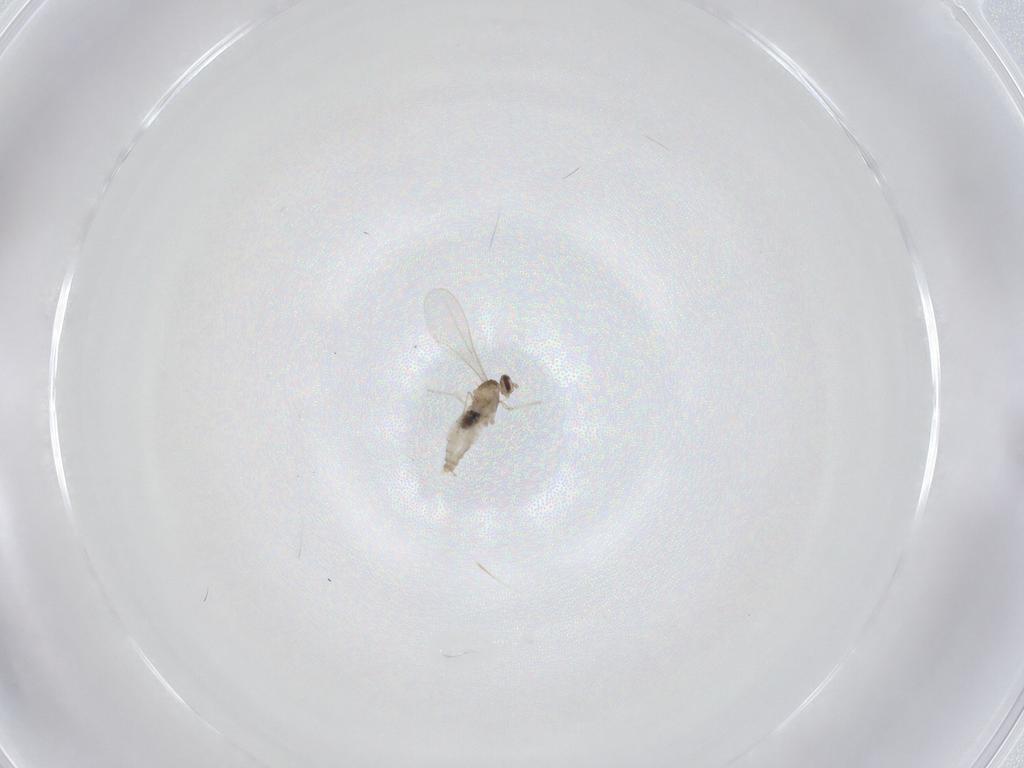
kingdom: Animalia
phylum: Arthropoda
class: Insecta
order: Diptera
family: Cecidomyiidae
